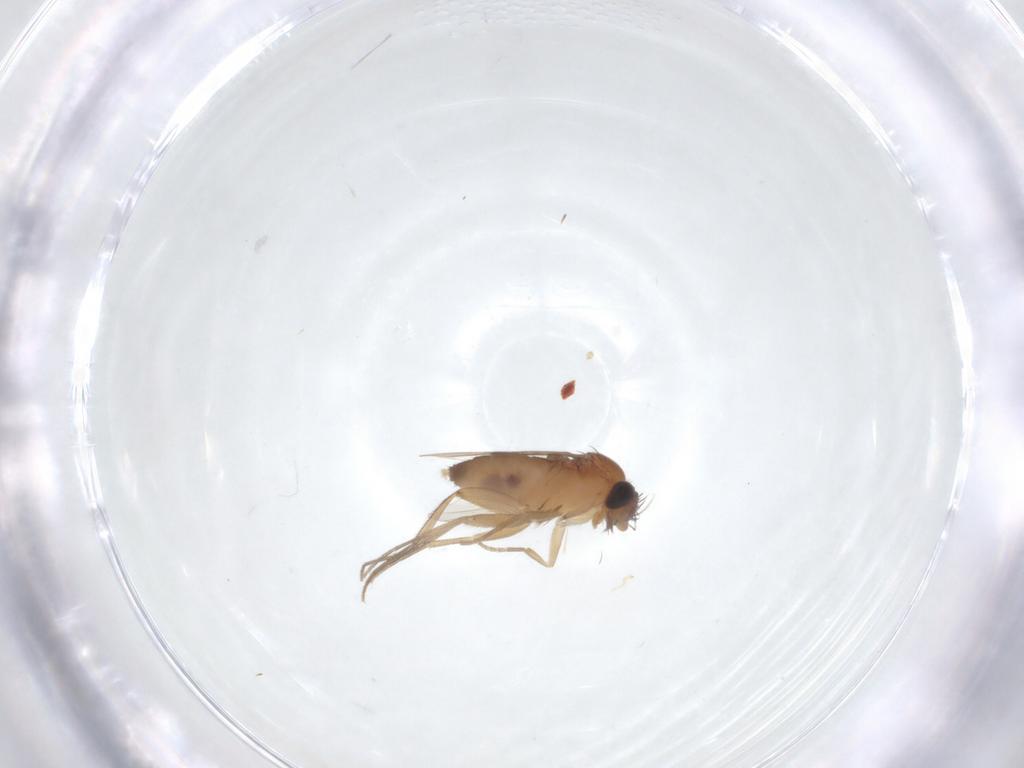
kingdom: Animalia
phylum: Arthropoda
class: Insecta
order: Diptera
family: Phoridae
